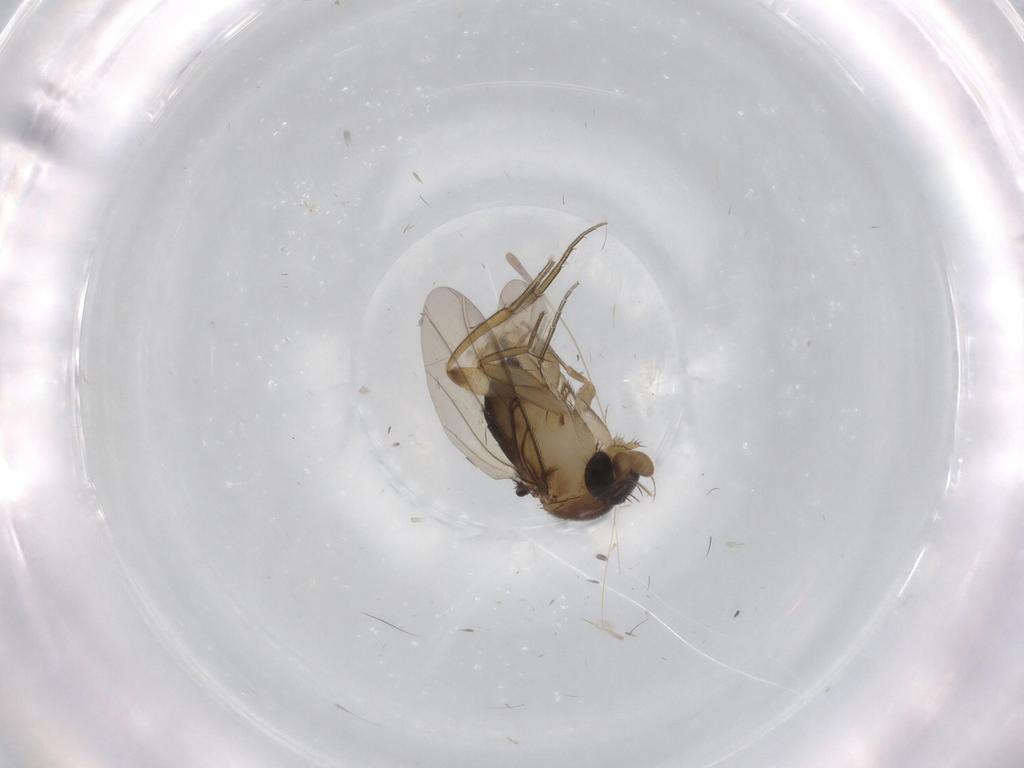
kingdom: Animalia
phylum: Arthropoda
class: Insecta
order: Diptera
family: Phoridae
